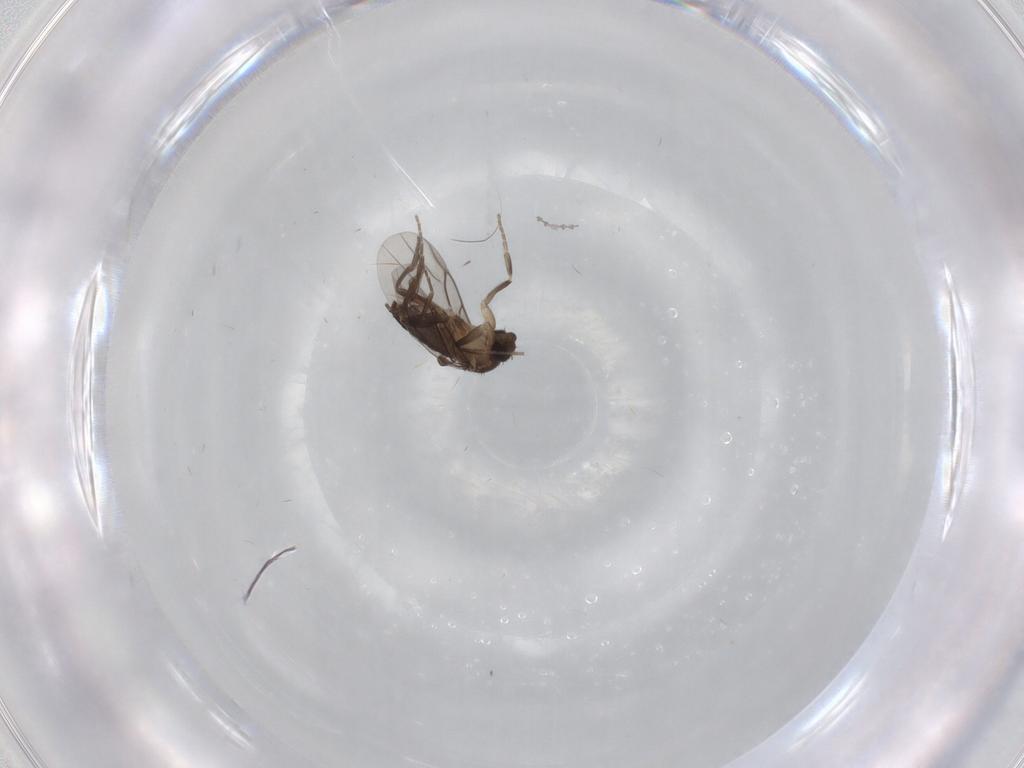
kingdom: Animalia
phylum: Arthropoda
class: Insecta
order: Diptera
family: Cecidomyiidae
